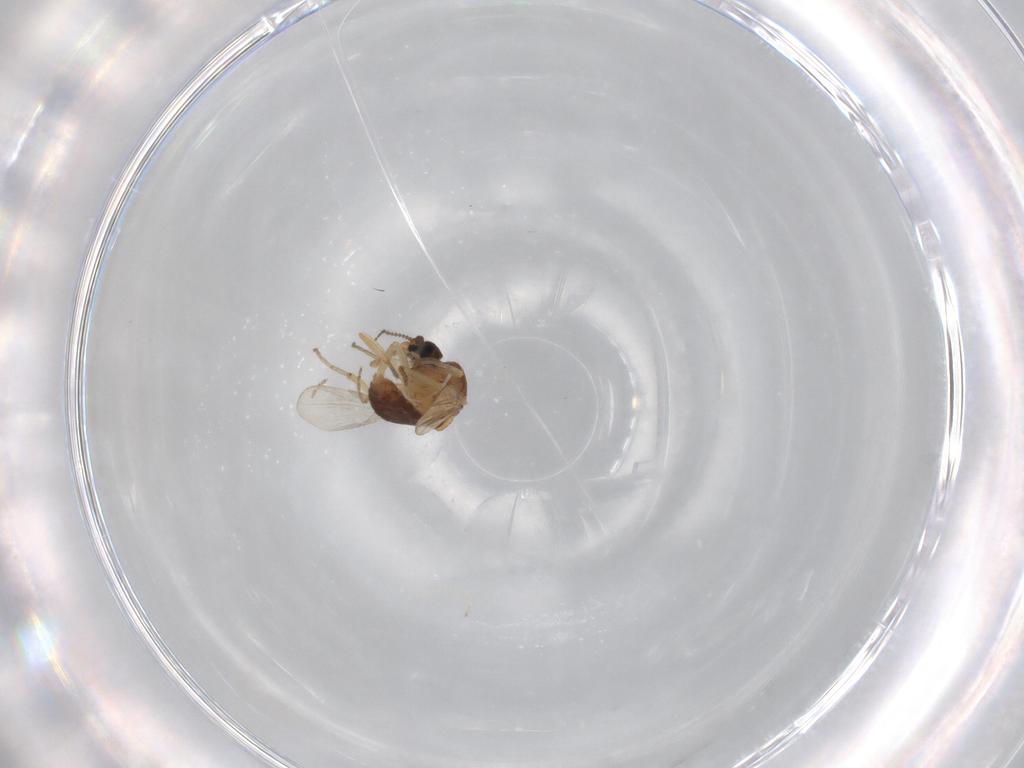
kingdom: Animalia
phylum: Arthropoda
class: Insecta
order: Diptera
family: Ceratopogonidae
